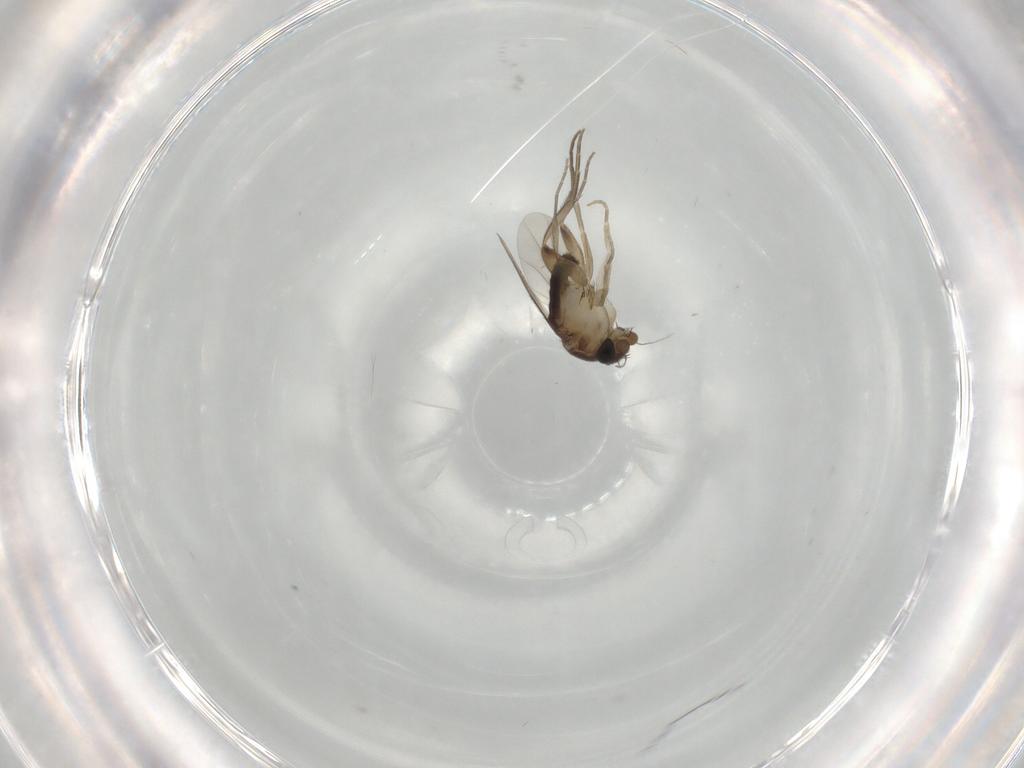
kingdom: Animalia
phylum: Arthropoda
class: Insecta
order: Diptera
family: Phoridae
